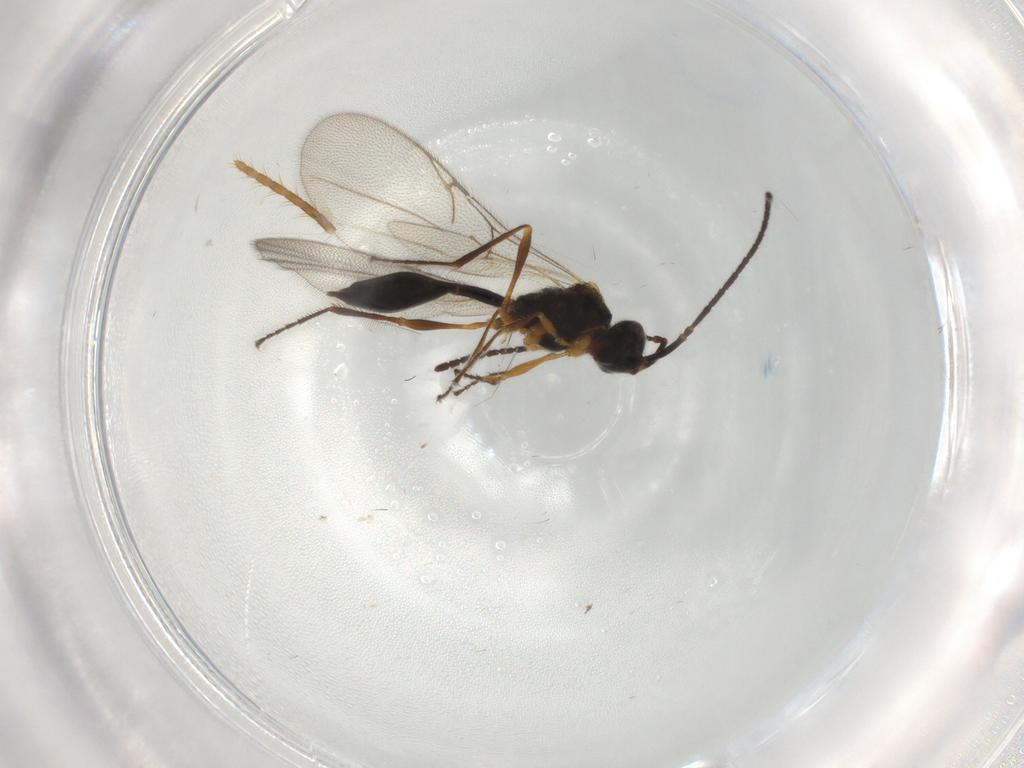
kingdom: Animalia
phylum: Arthropoda
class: Insecta
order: Hymenoptera
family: Diapriidae
